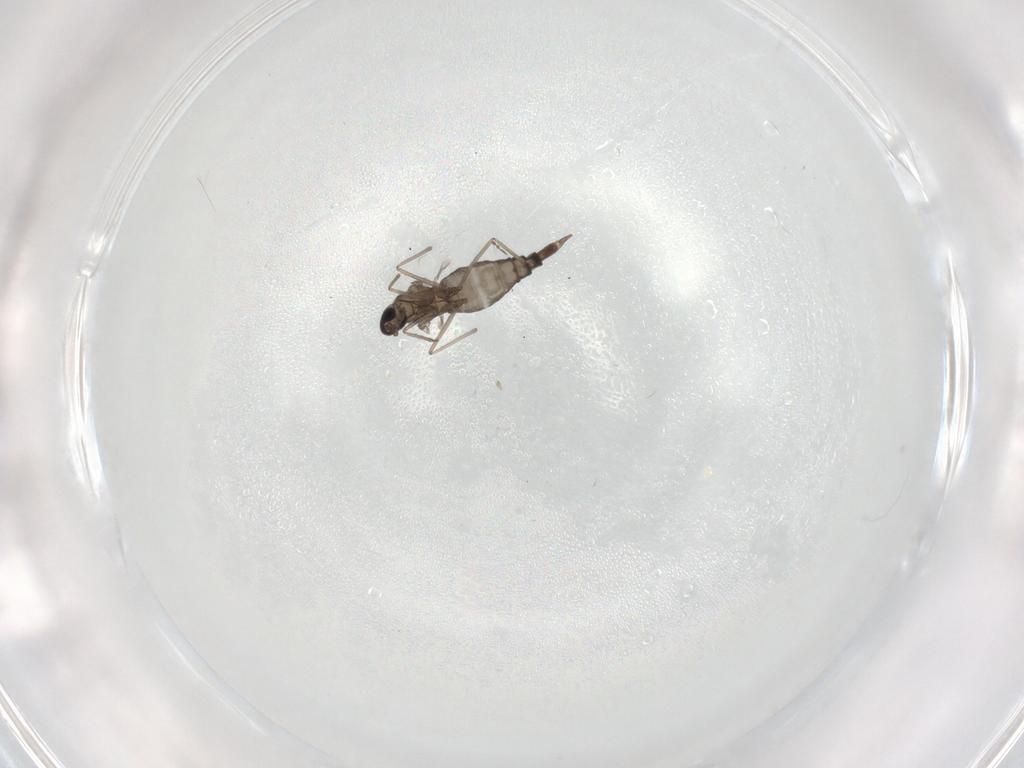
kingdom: Animalia
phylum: Arthropoda
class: Insecta
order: Diptera
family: Cecidomyiidae
